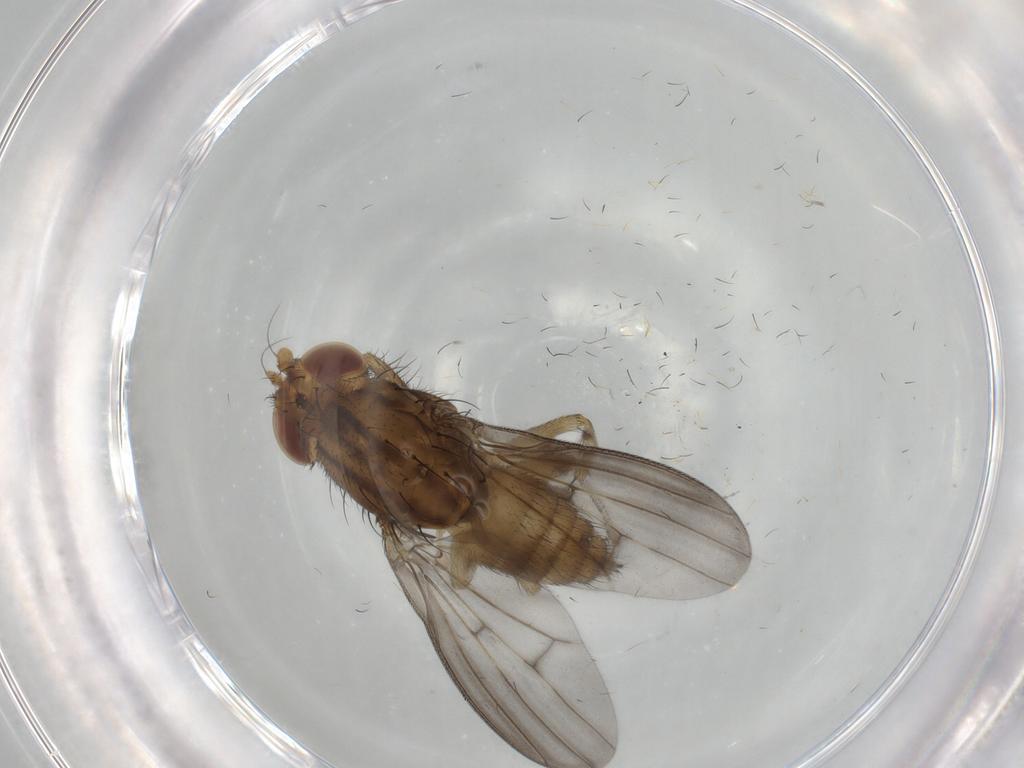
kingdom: Animalia
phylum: Arthropoda
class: Insecta
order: Diptera
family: Lauxaniidae
